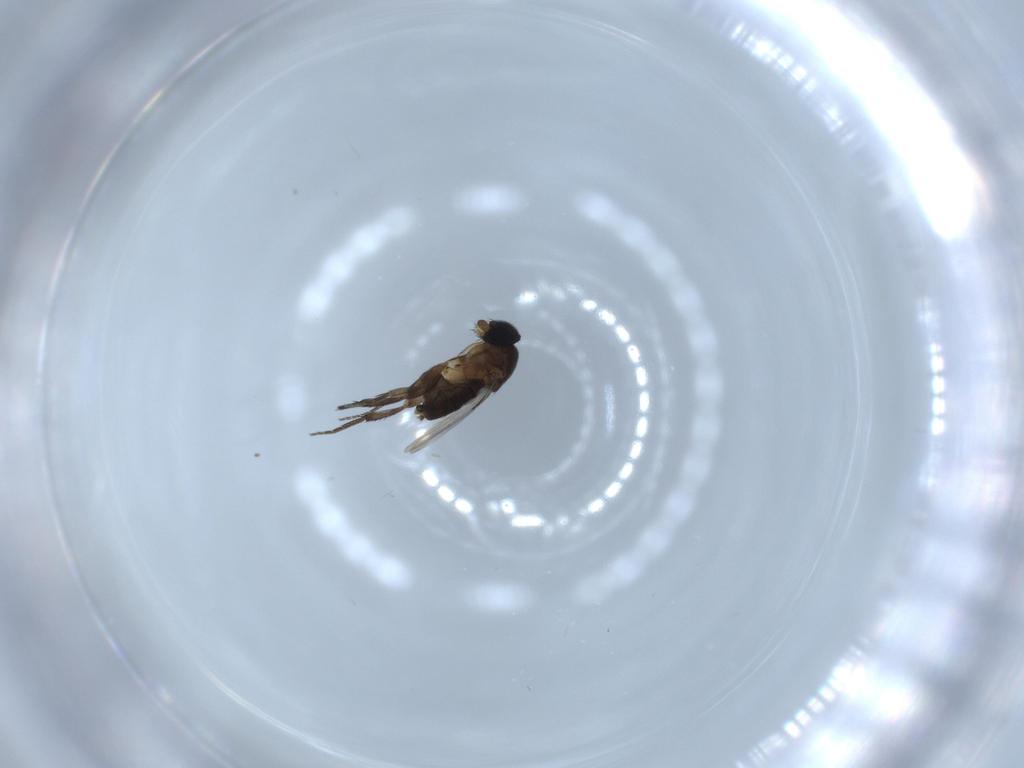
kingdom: Animalia
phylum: Arthropoda
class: Insecta
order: Diptera
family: Phoridae
